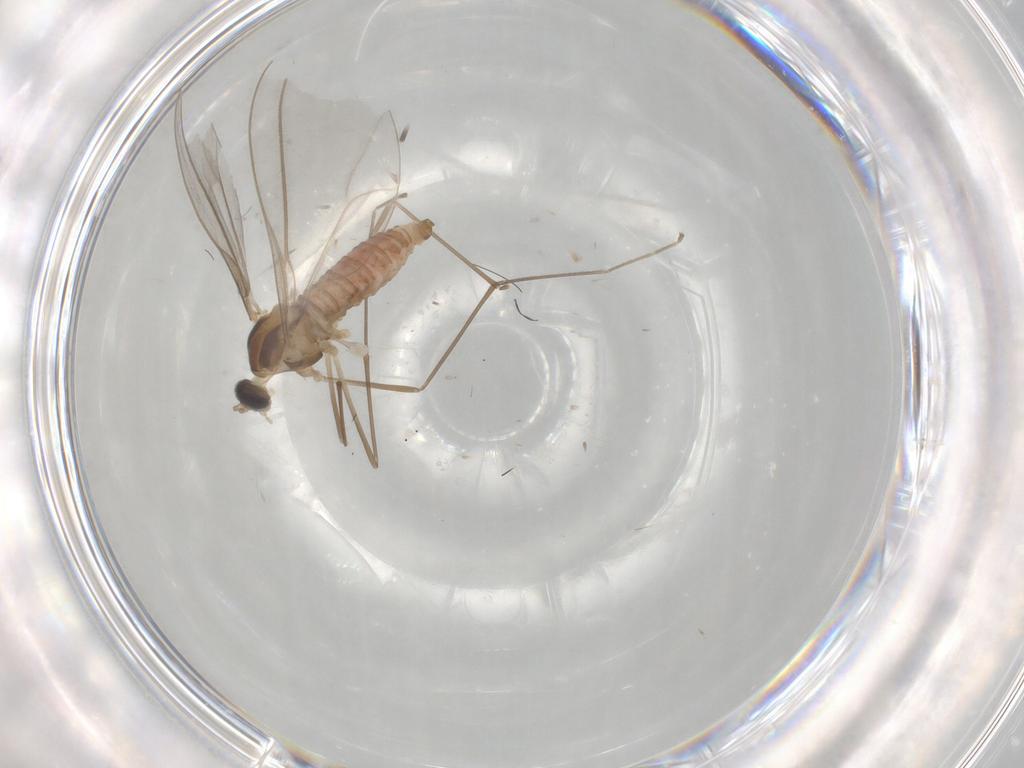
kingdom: Animalia
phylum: Arthropoda
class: Insecta
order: Diptera
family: Cecidomyiidae
